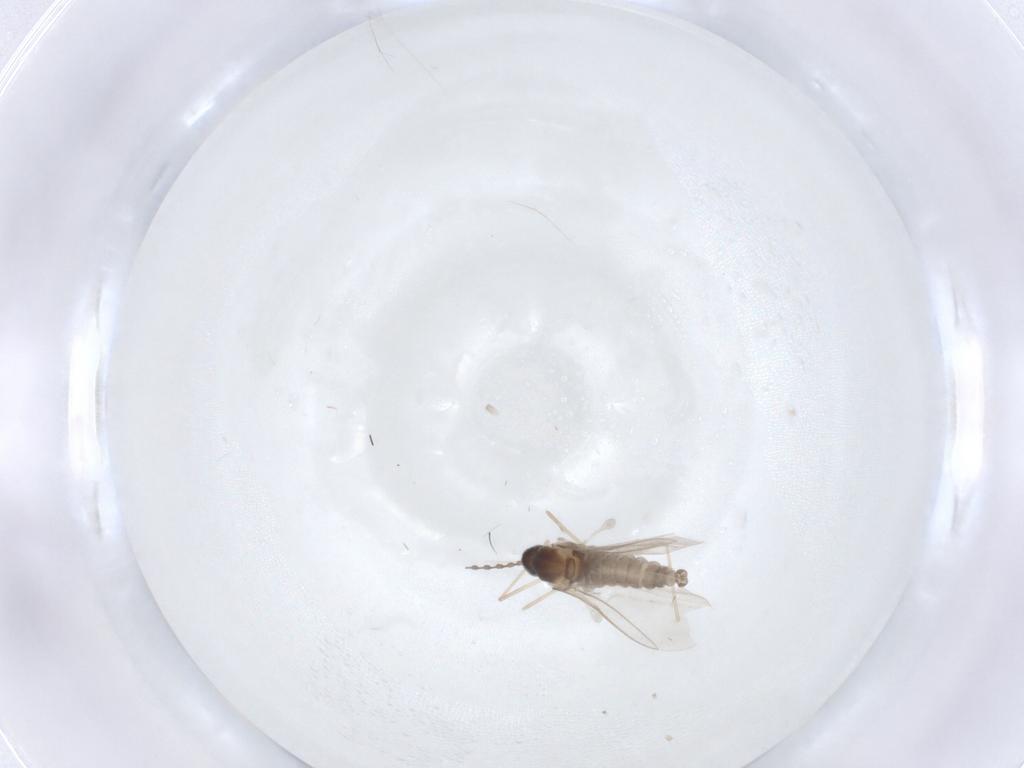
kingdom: Animalia
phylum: Arthropoda
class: Insecta
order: Diptera
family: Cecidomyiidae
